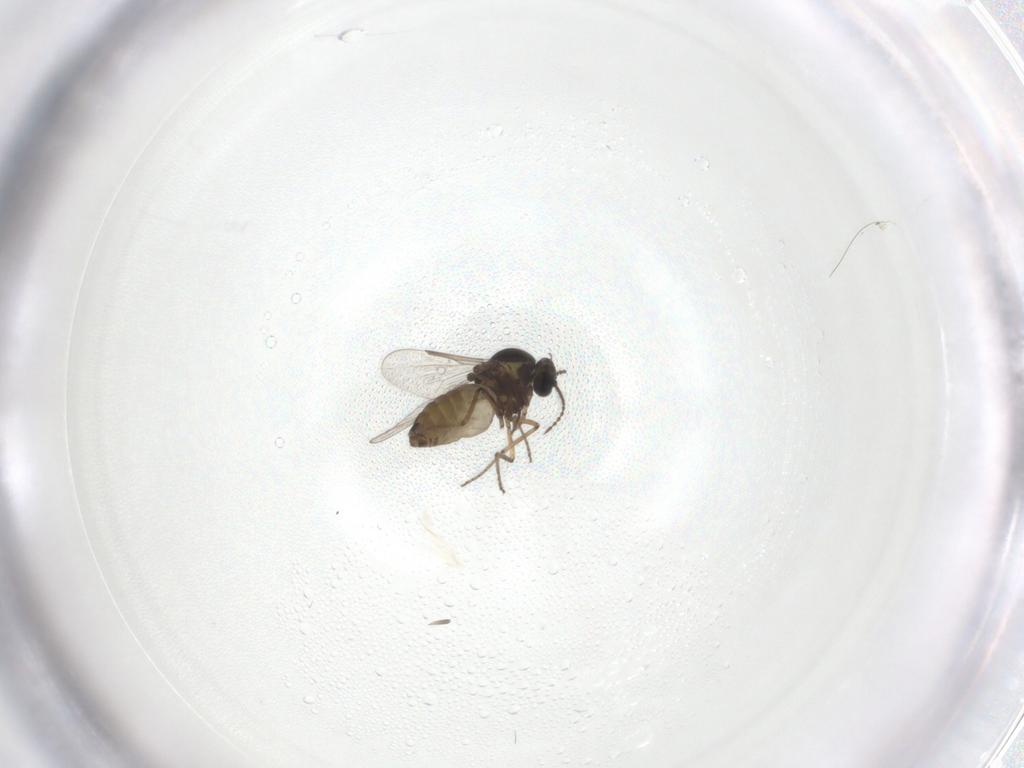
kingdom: Animalia
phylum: Arthropoda
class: Insecta
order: Diptera
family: Ceratopogonidae
